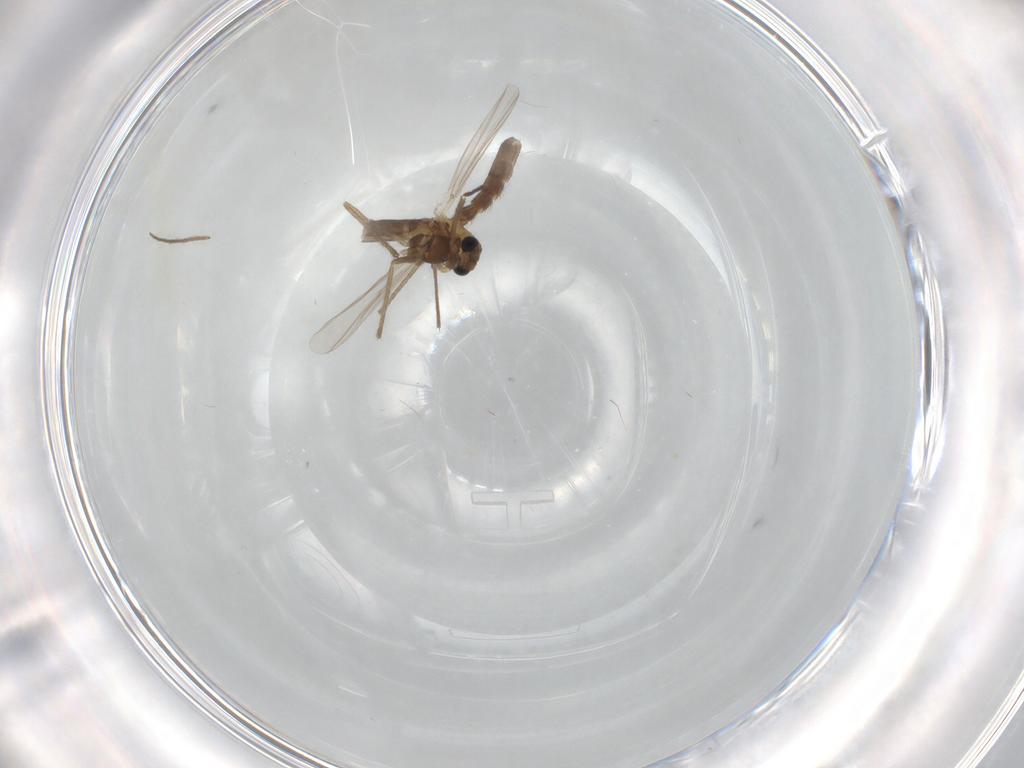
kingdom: Animalia
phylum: Arthropoda
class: Insecta
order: Diptera
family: Chironomidae
